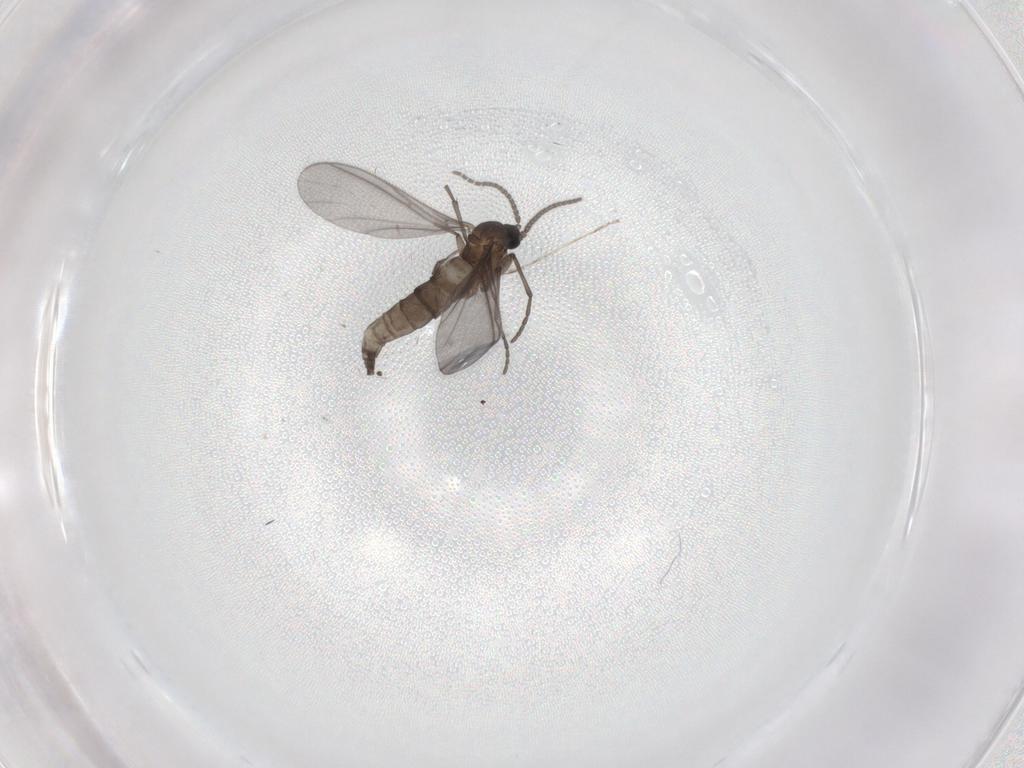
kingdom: Animalia
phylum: Arthropoda
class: Insecta
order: Diptera
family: Sciaridae
